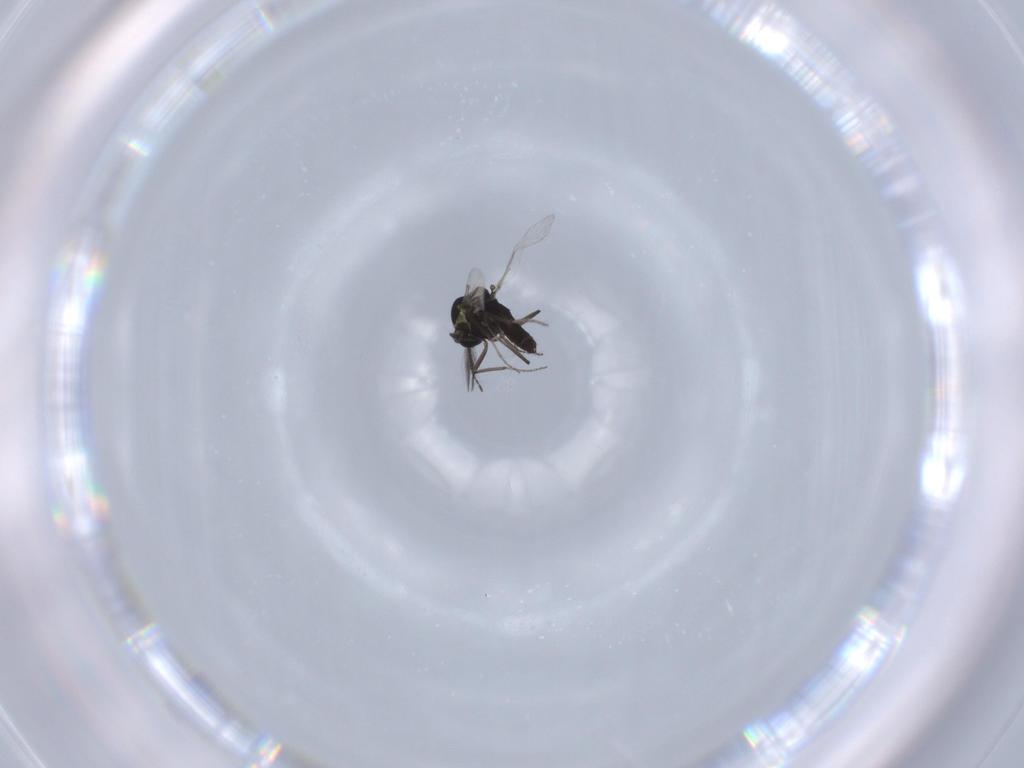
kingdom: Animalia
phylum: Arthropoda
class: Insecta
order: Diptera
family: Ceratopogonidae
